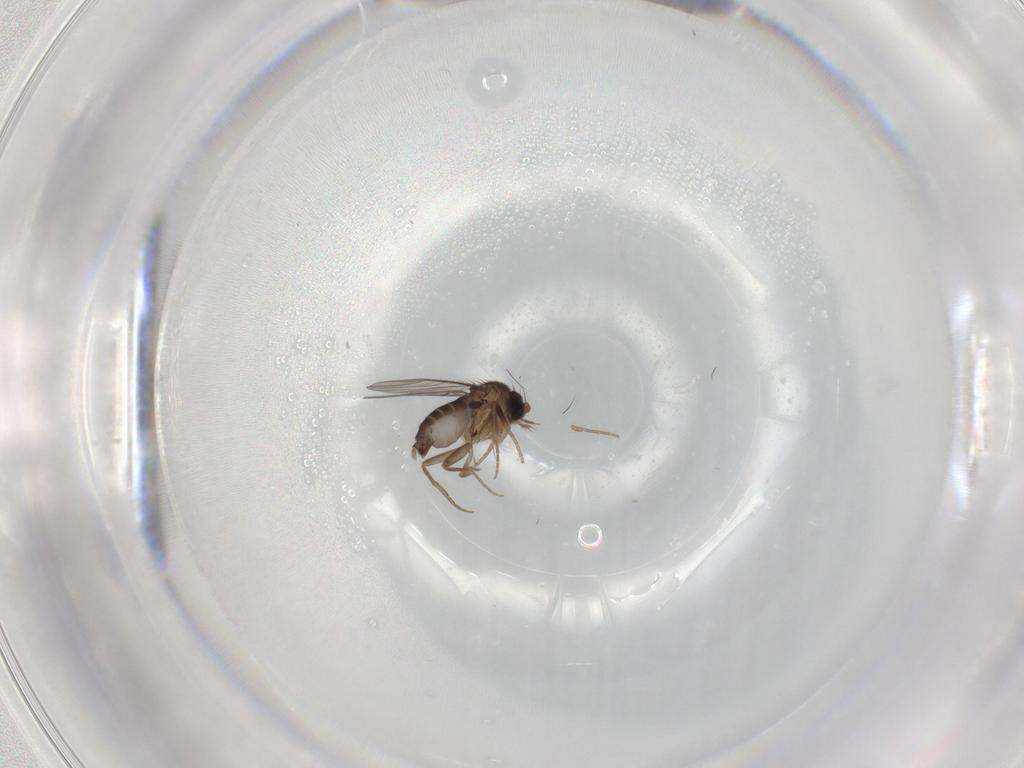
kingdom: Animalia
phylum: Arthropoda
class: Insecta
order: Diptera
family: Phoridae
